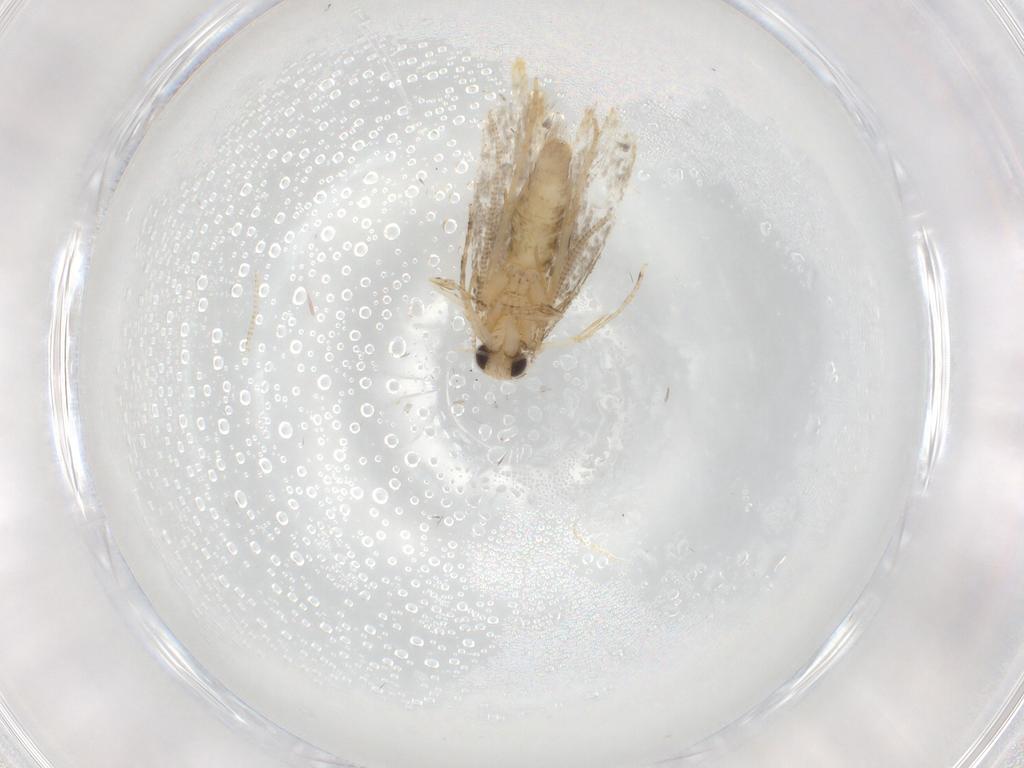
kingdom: Animalia
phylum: Arthropoda
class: Insecta
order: Lepidoptera
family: Tineidae
